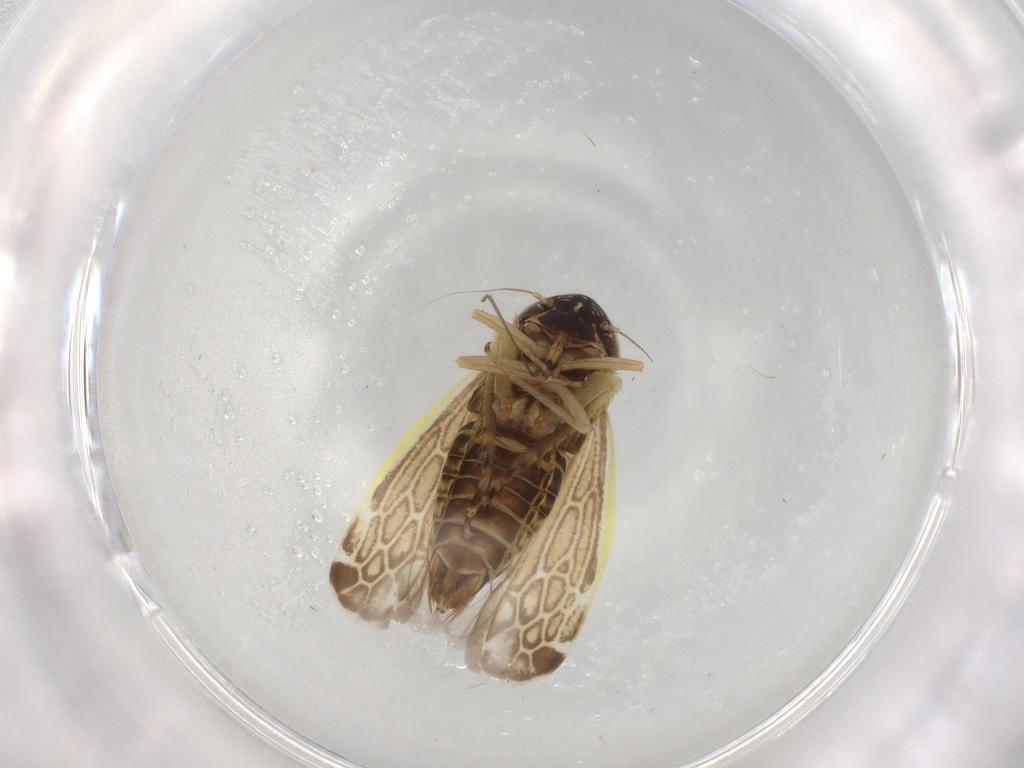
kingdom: Animalia
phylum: Arthropoda
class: Insecta
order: Hemiptera
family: Cicadellidae
